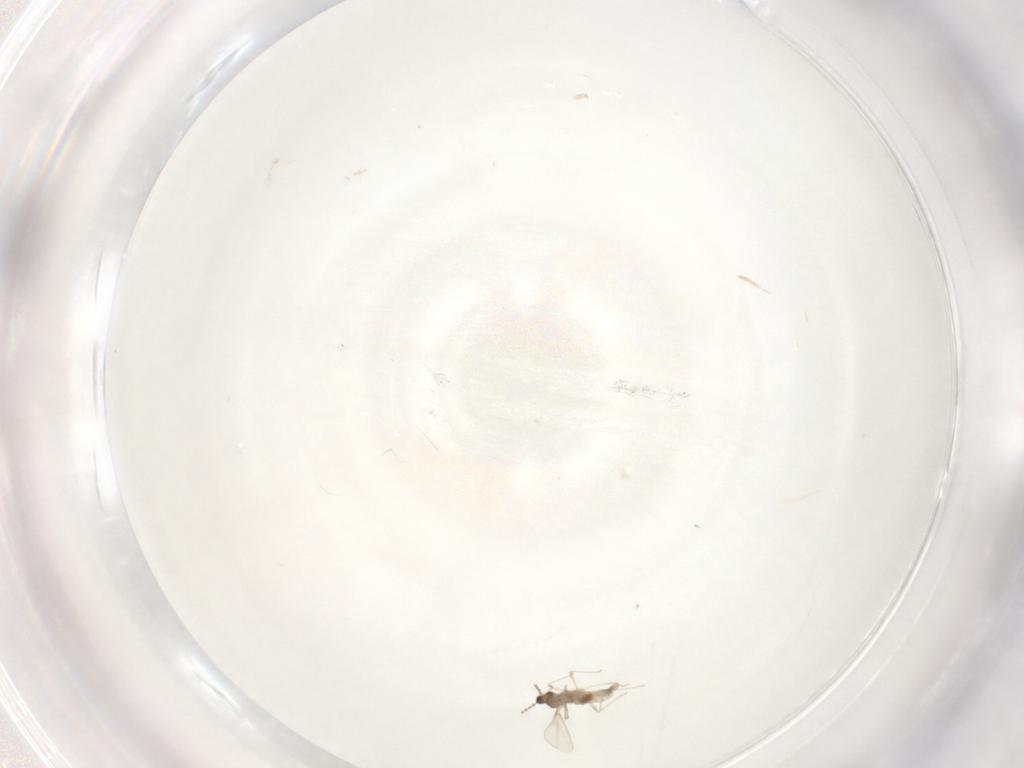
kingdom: Animalia
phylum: Arthropoda
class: Insecta
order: Diptera
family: Cecidomyiidae
